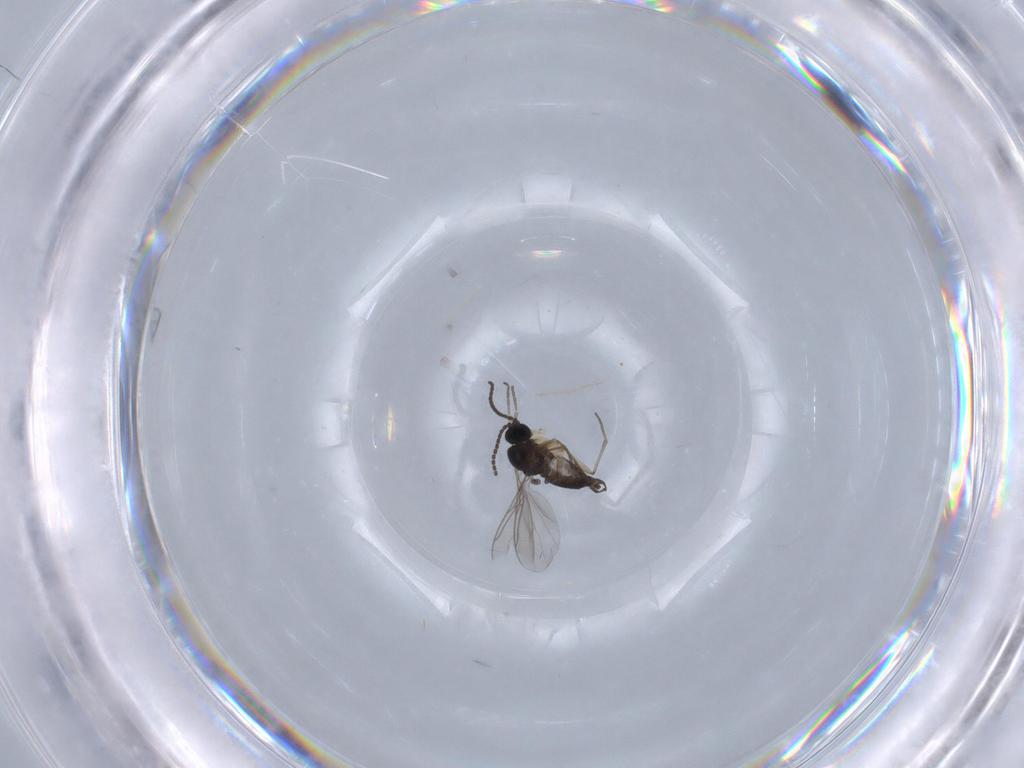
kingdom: Animalia
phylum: Arthropoda
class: Insecta
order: Diptera
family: Sciaridae
